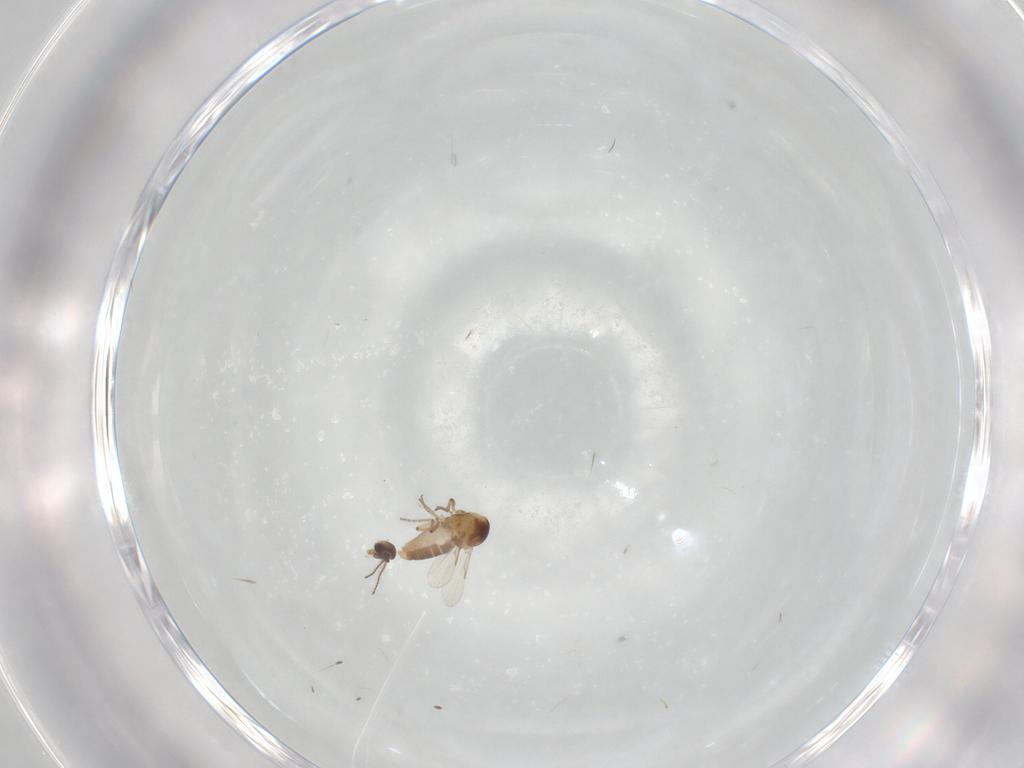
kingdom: Animalia
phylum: Arthropoda
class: Insecta
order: Diptera
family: Ceratopogonidae
